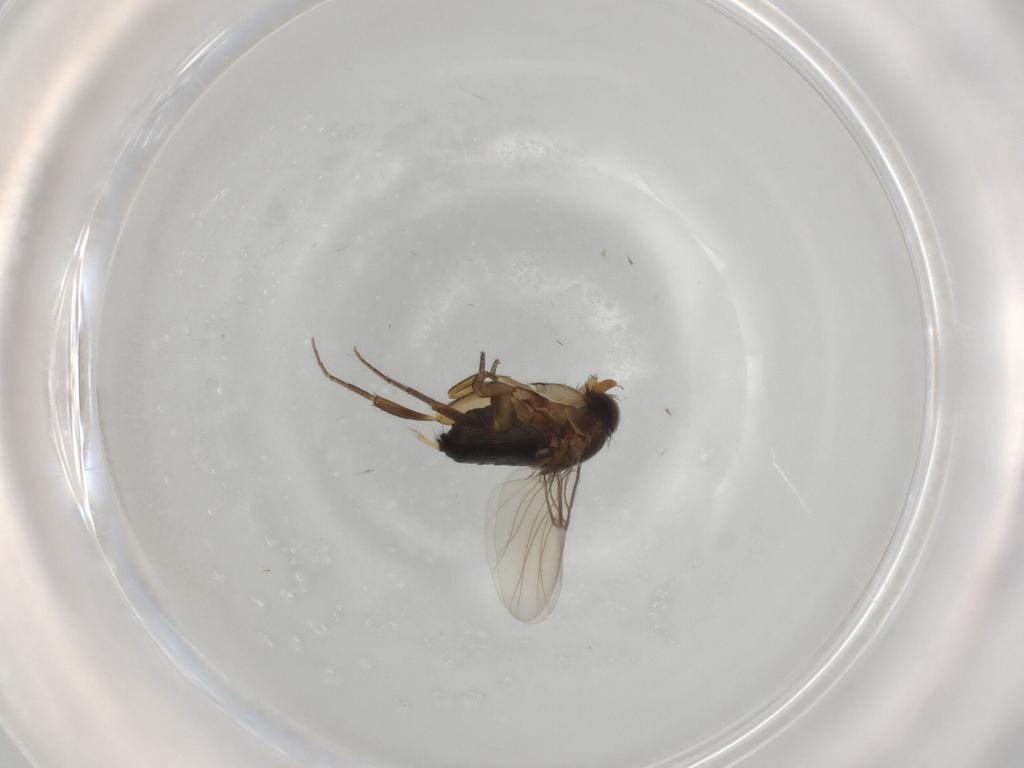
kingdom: Animalia
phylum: Arthropoda
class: Insecta
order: Diptera
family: Phoridae
